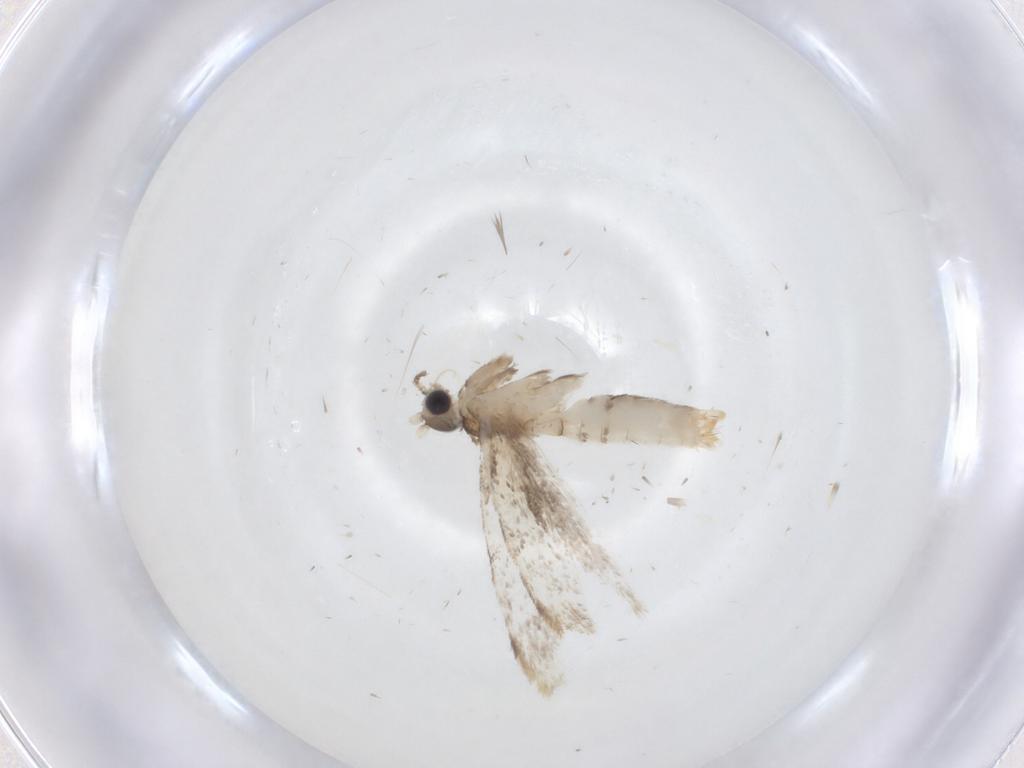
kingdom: Animalia
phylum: Arthropoda
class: Insecta
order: Lepidoptera
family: Dryadaulidae
